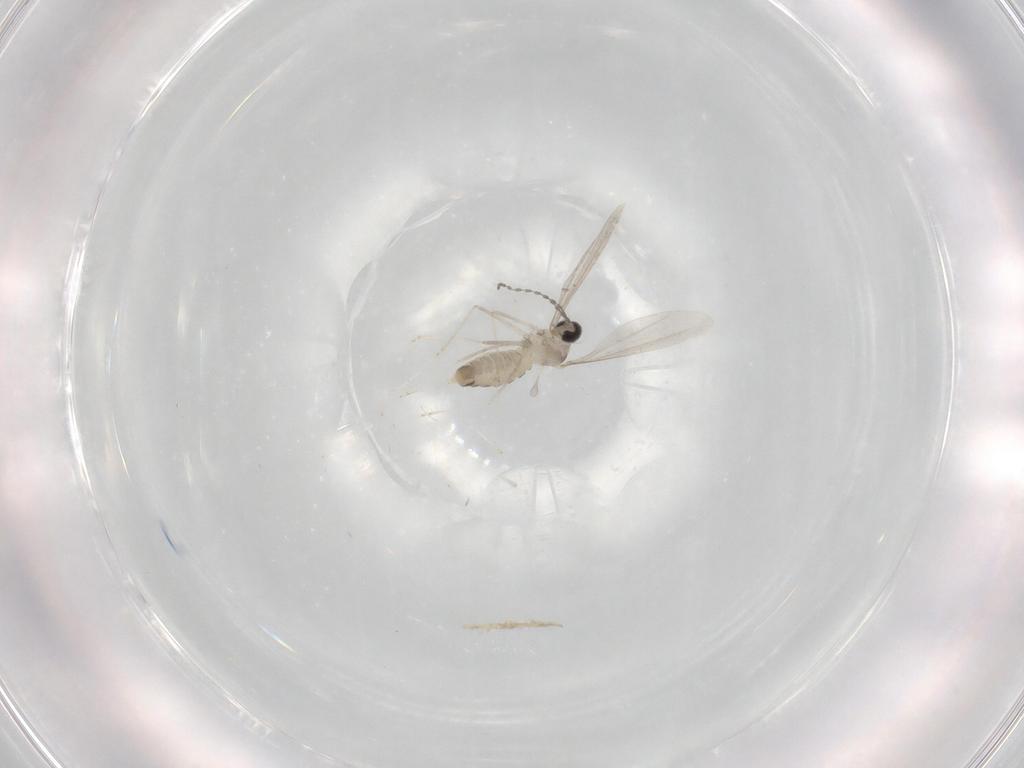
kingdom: Animalia
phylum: Arthropoda
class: Insecta
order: Diptera
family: Cecidomyiidae
